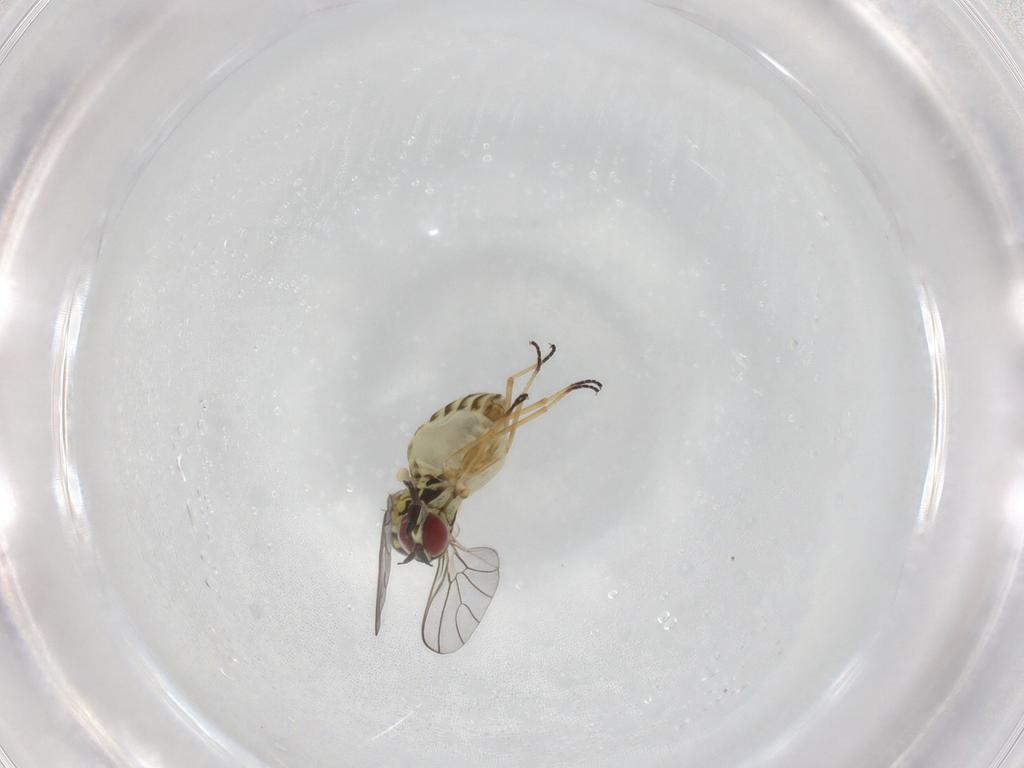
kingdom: Animalia
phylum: Arthropoda
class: Insecta
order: Diptera
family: Bombyliidae
